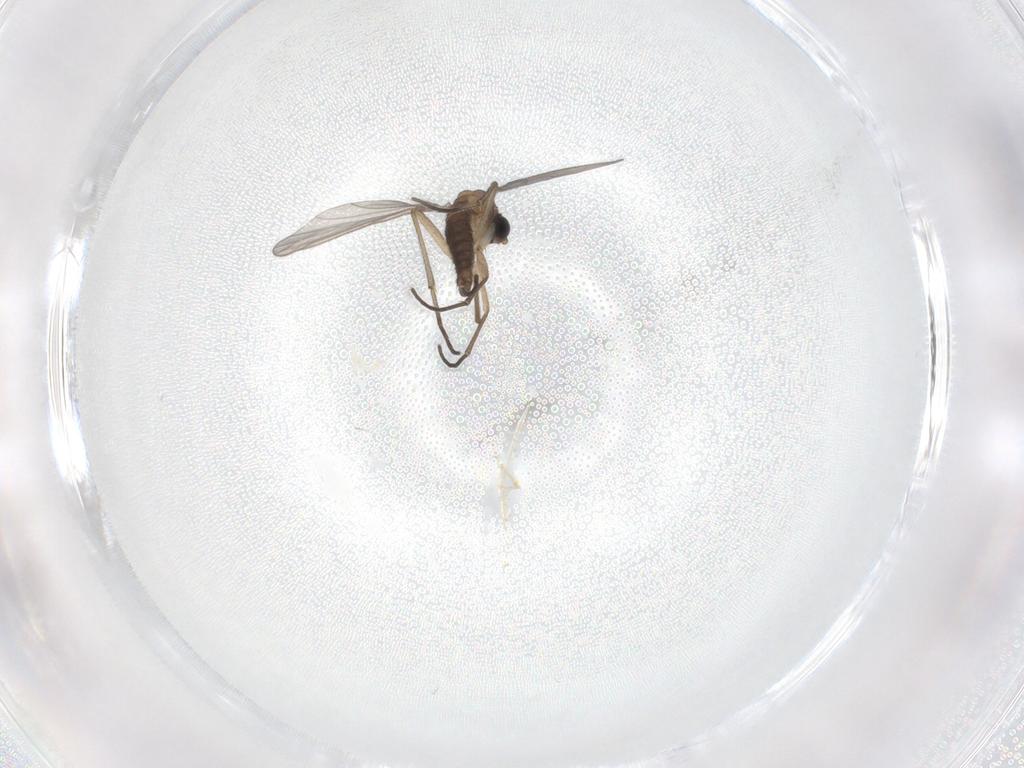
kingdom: Animalia
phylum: Arthropoda
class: Insecta
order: Diptera
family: Sciaridae
